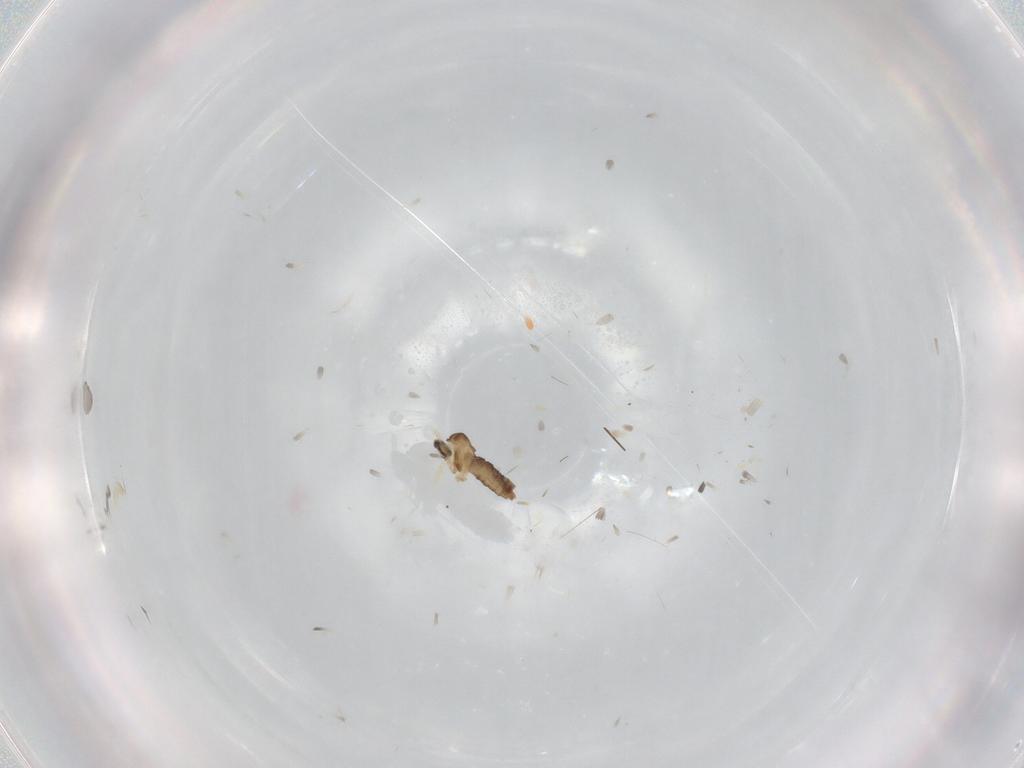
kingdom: Animalia
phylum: Arthropoda
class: Insecta
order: Diptera
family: Cecidomyiidae
